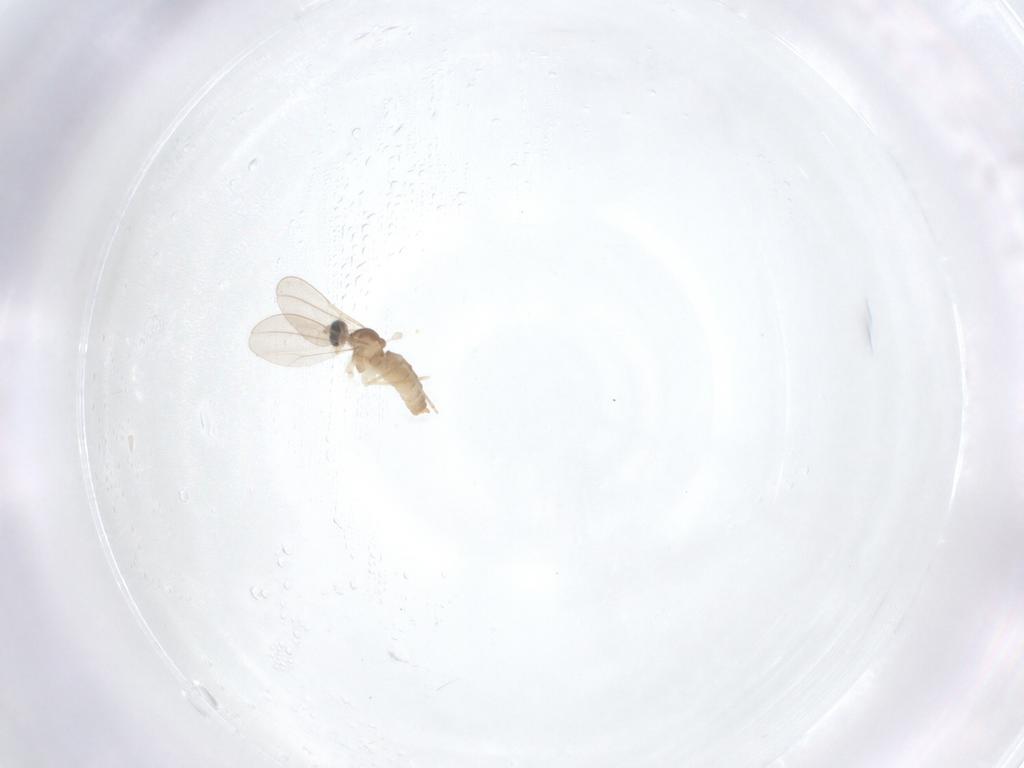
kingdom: Animalia
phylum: Arthropoda
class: Insecta
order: Diptera
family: Cecidomyiidae
